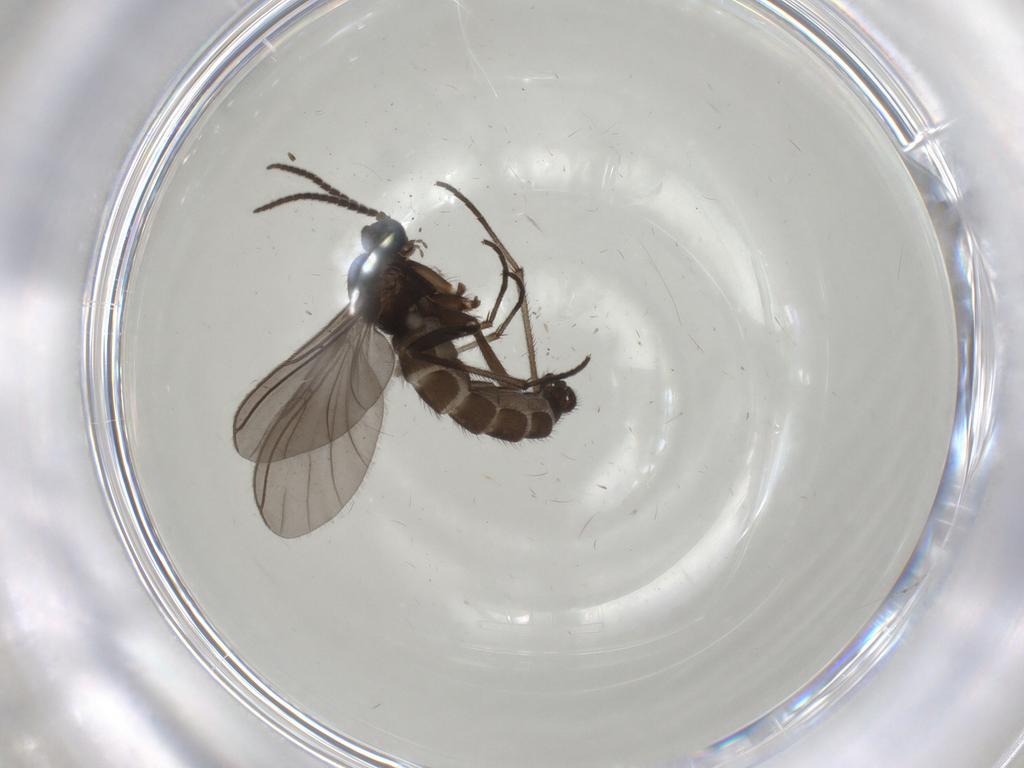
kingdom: Animalia
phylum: Arthropoda
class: Insecta
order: Diptera
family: Sciaridae
